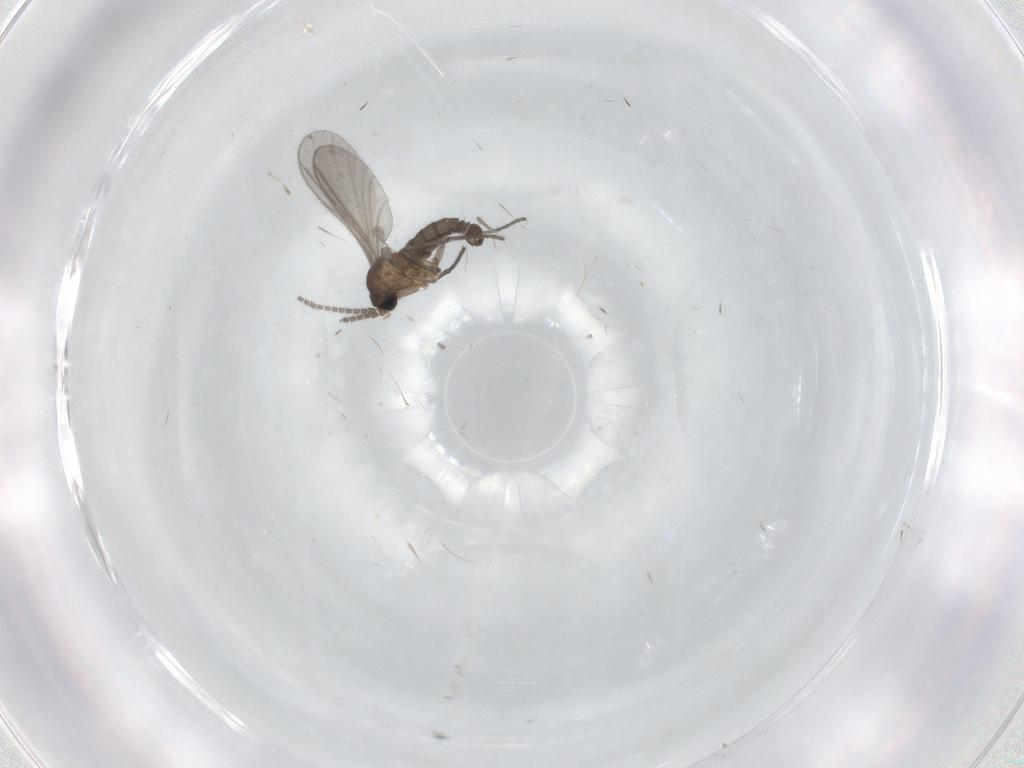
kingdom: Animalia
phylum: Arthropoda
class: Insecta
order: Diptera
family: Sciaridae
